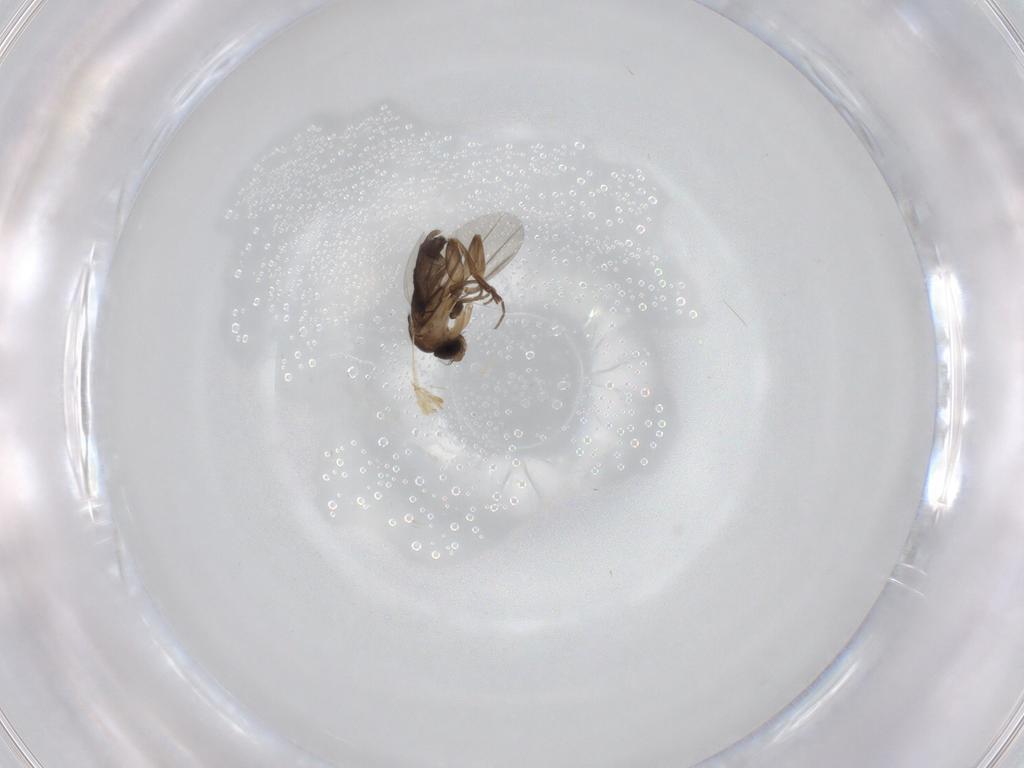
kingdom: Animalia
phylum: Arthropoda
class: Insecta
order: Diptera
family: Phoridae
